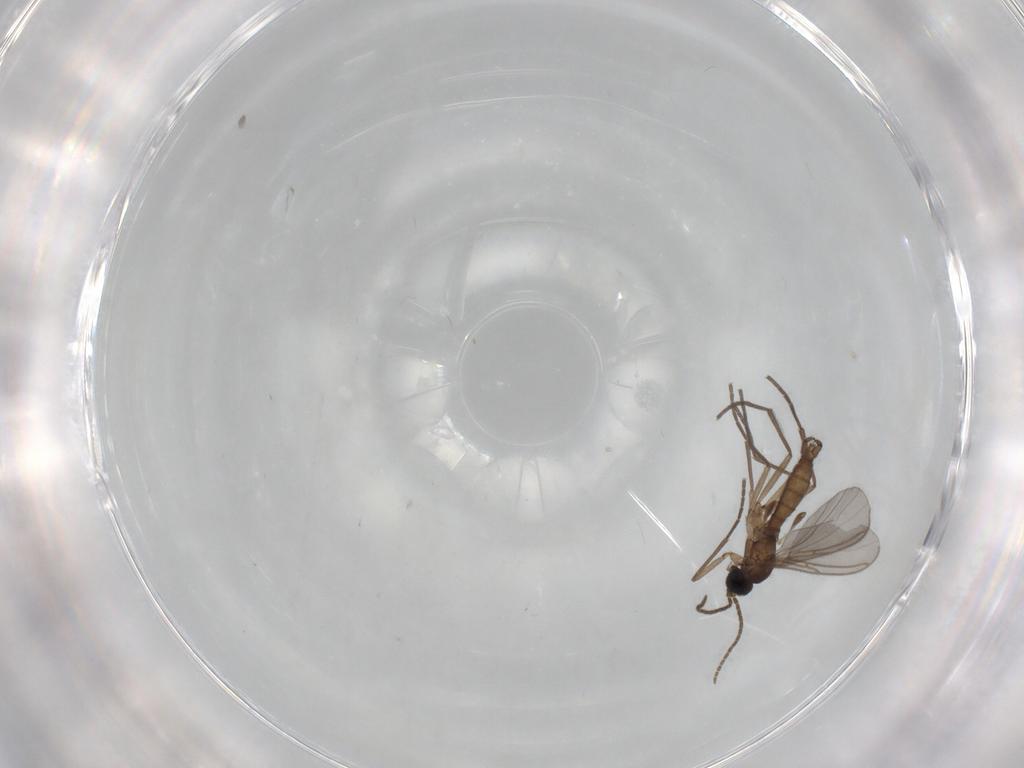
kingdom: Animalia
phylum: Arthropoda
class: Insecta
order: Diptera
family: Sciaridae
